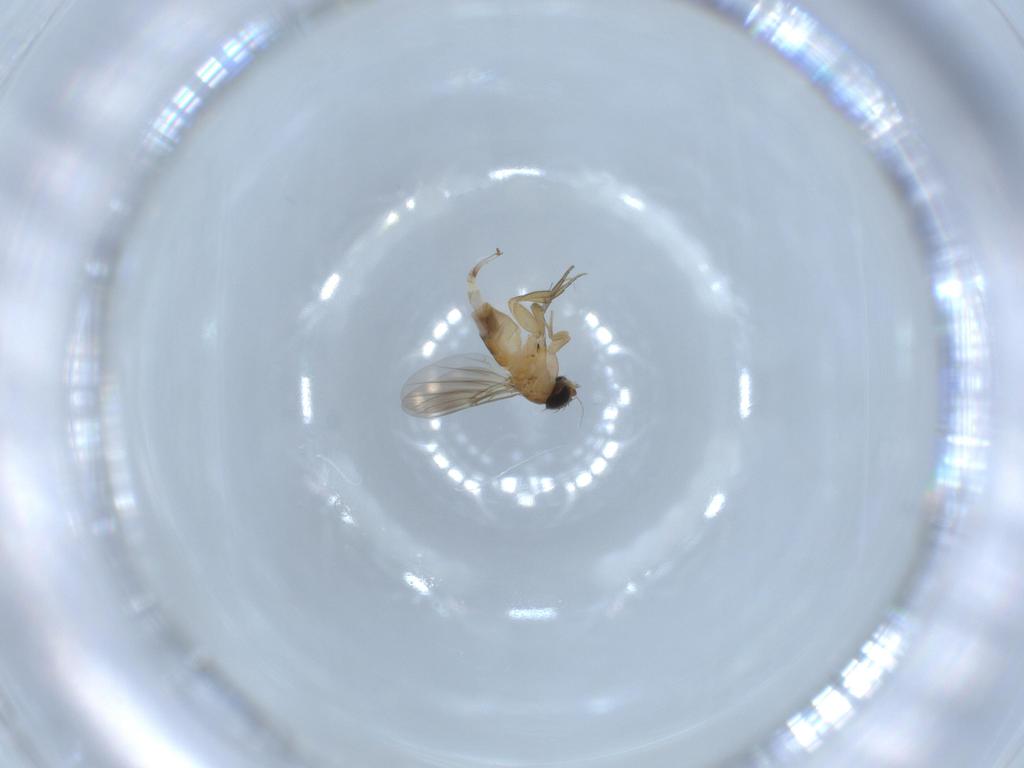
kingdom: Animalia
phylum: Arthropoda
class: Insecta
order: Diptera
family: Phoridae
